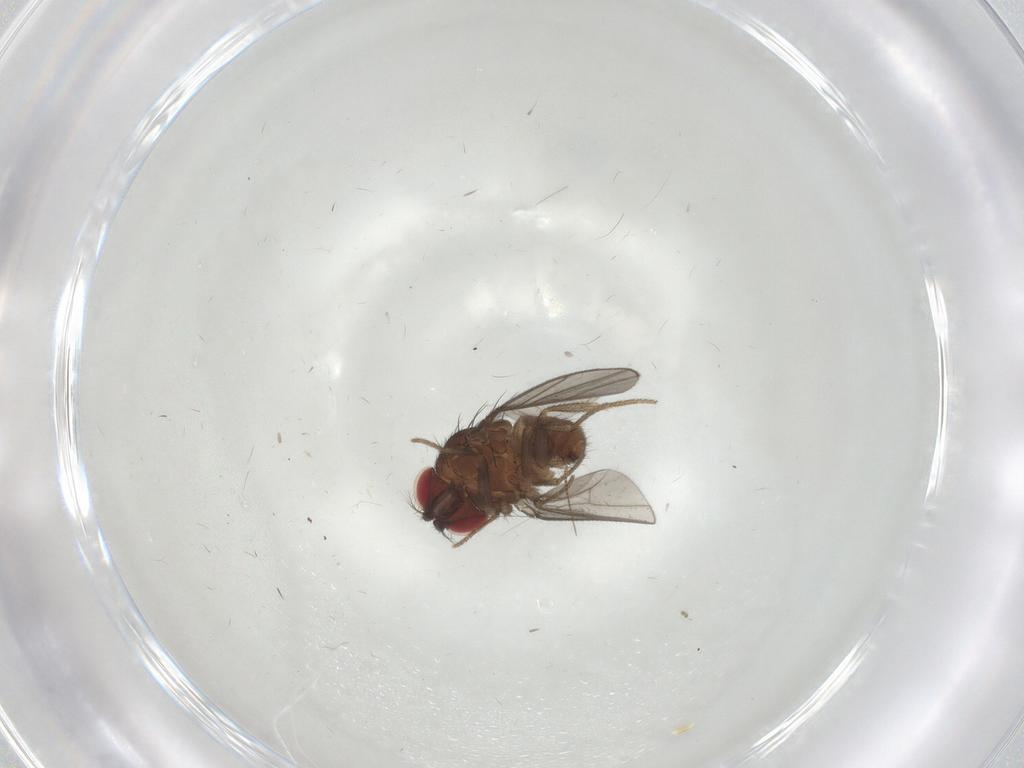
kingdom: Animalia
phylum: Arthropoda
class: Insecta
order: Diptera
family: Drosophilidae
